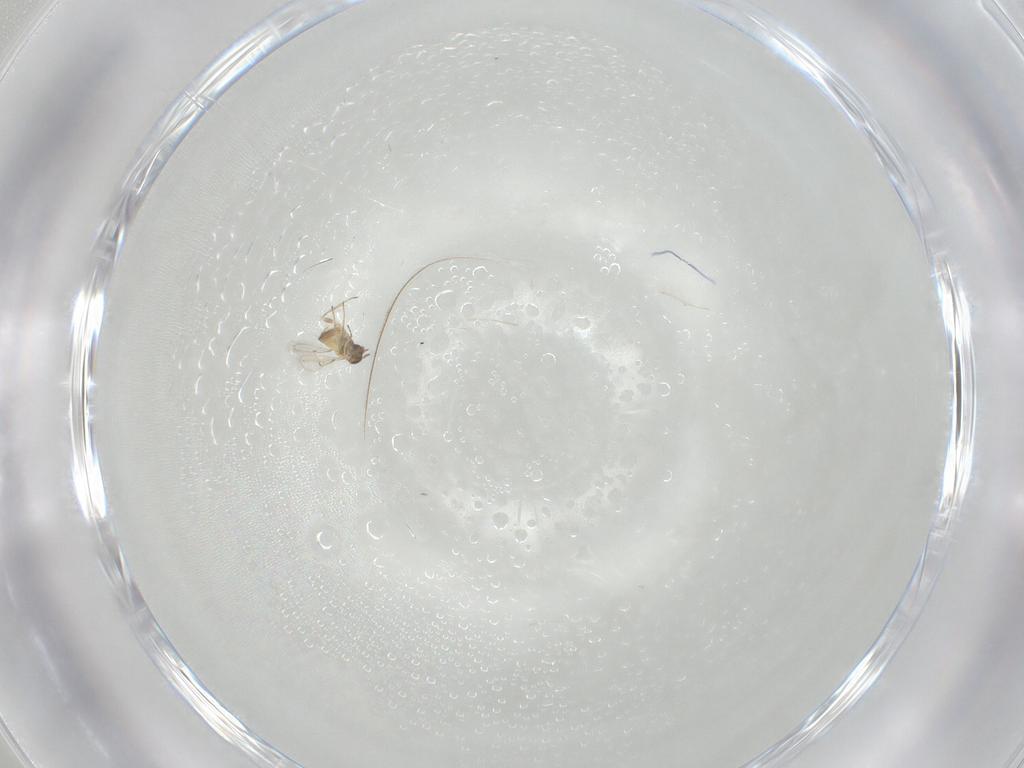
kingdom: Animalia
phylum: Arthropoda
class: Insecta
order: Hymenoptera
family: Trichogrammatidae
